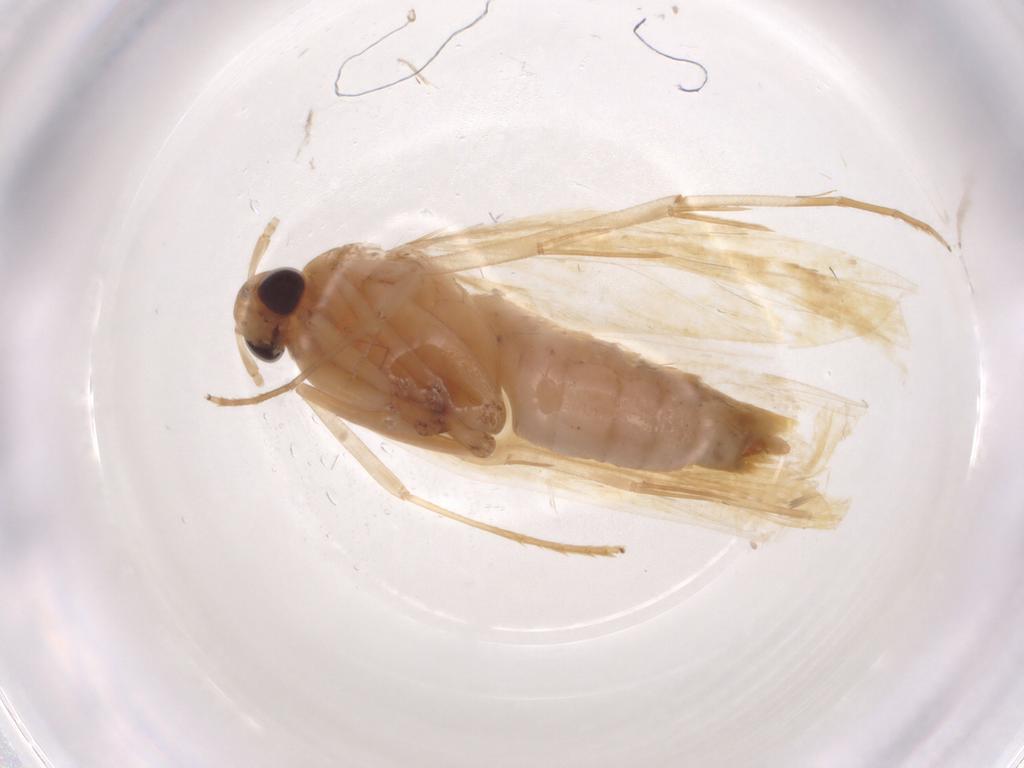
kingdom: Animalia
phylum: Arthropoda
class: Insecta
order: Lepidoptera
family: Lecithoceridae
